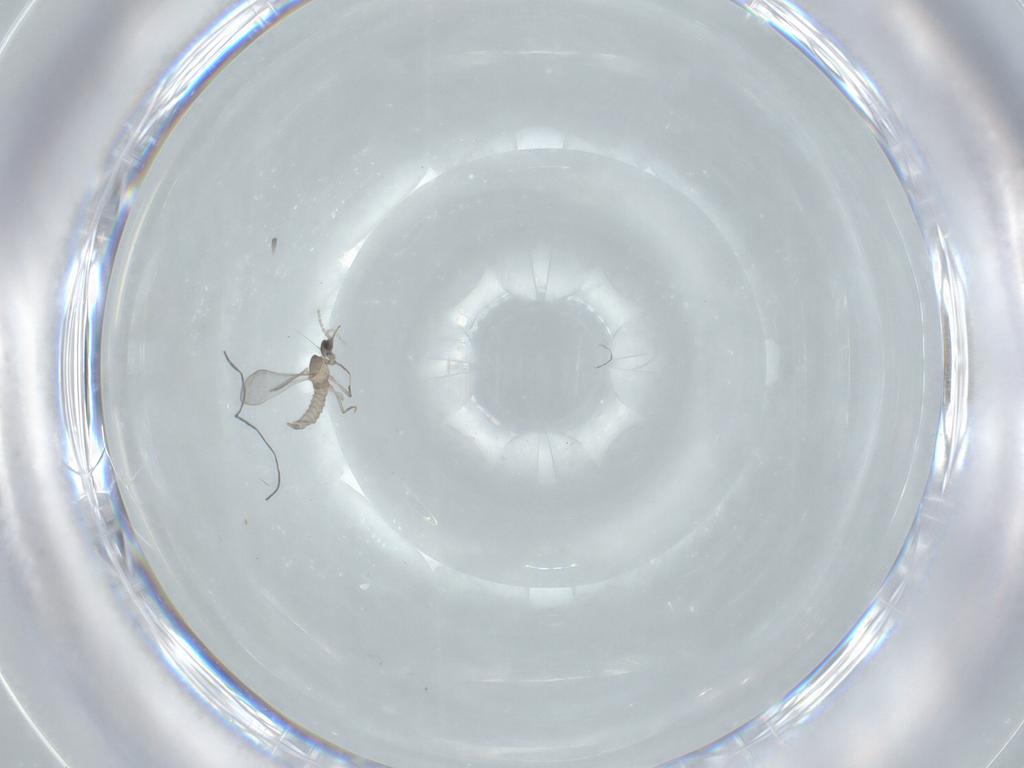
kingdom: Animalia
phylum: Arthropoda
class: Insecta
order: Diptera
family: Cecidomyiidae
